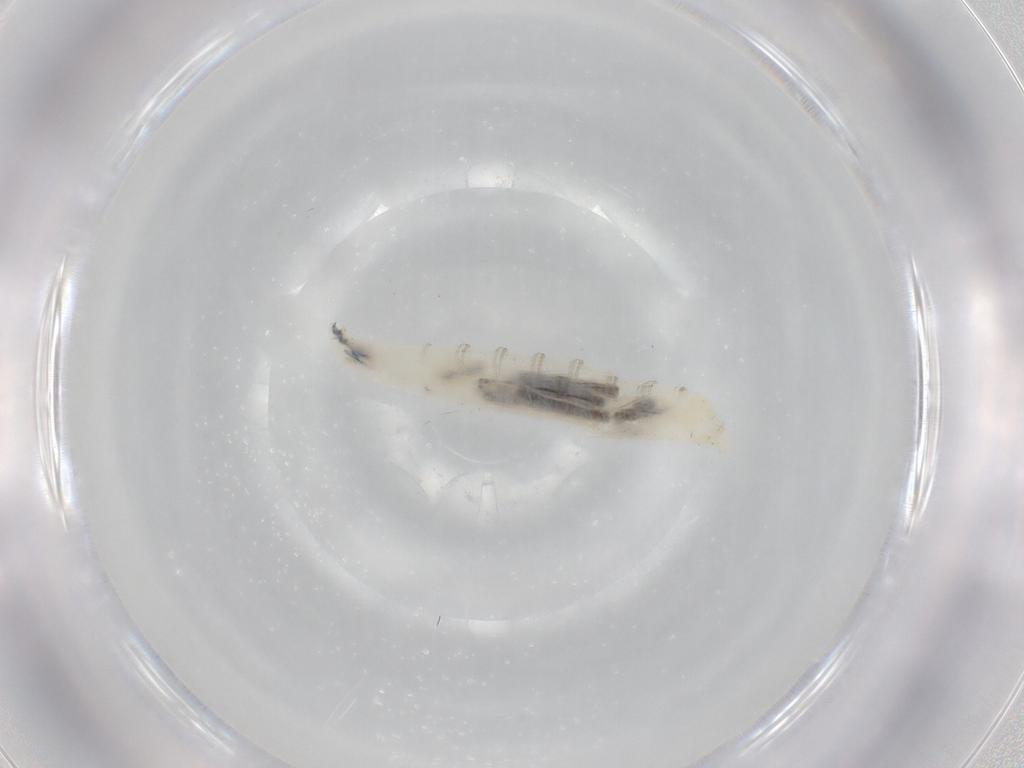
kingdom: Animalia
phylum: Arthropoda
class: Insecta
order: Diptera
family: Drosophilidae
